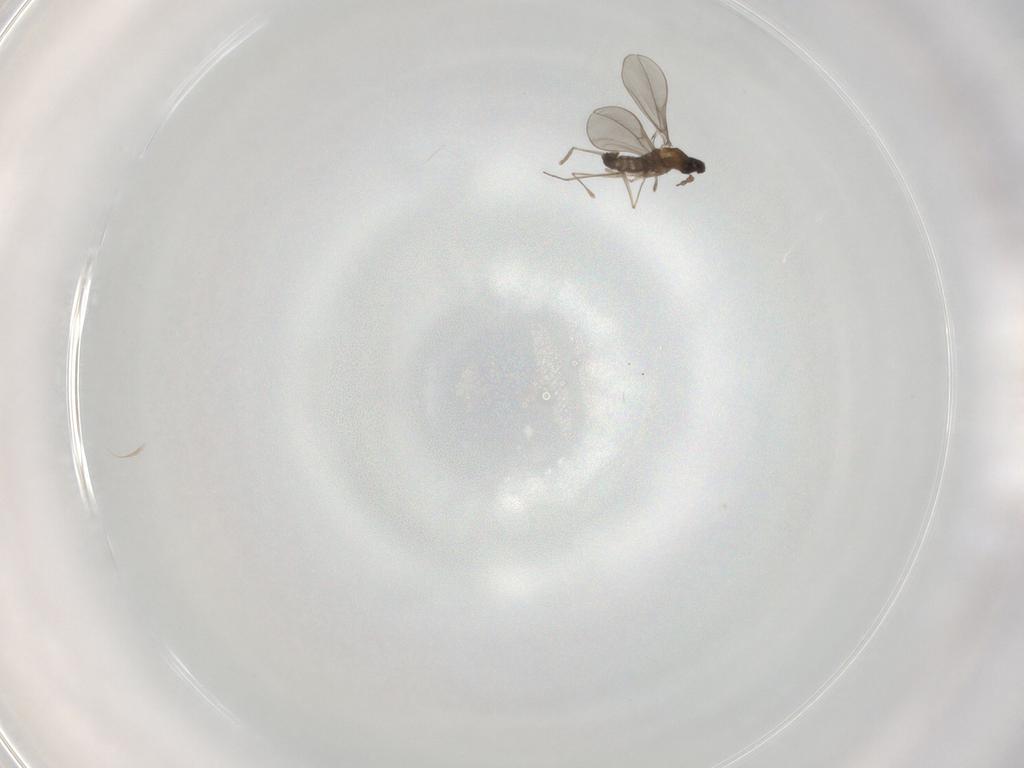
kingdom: Animalia
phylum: Arthropoda
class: Insecta
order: Diptera
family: Cecidomyiidae
